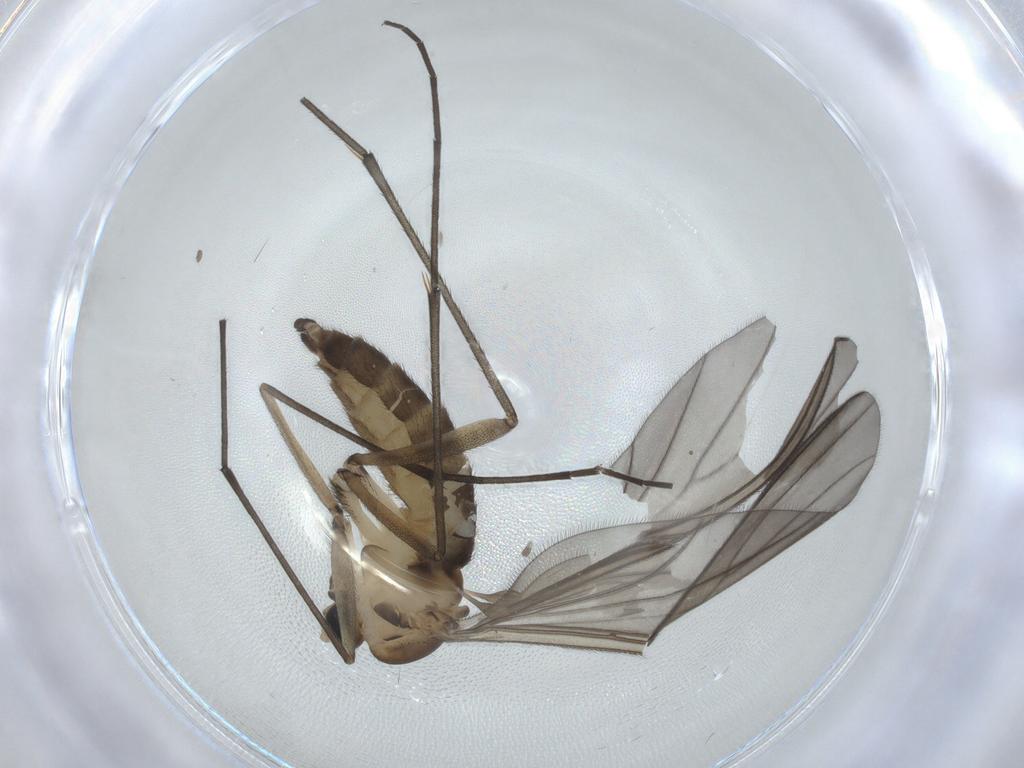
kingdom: Animalia
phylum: Arthropoda
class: Insecta
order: Diptera
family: Sciaridae
